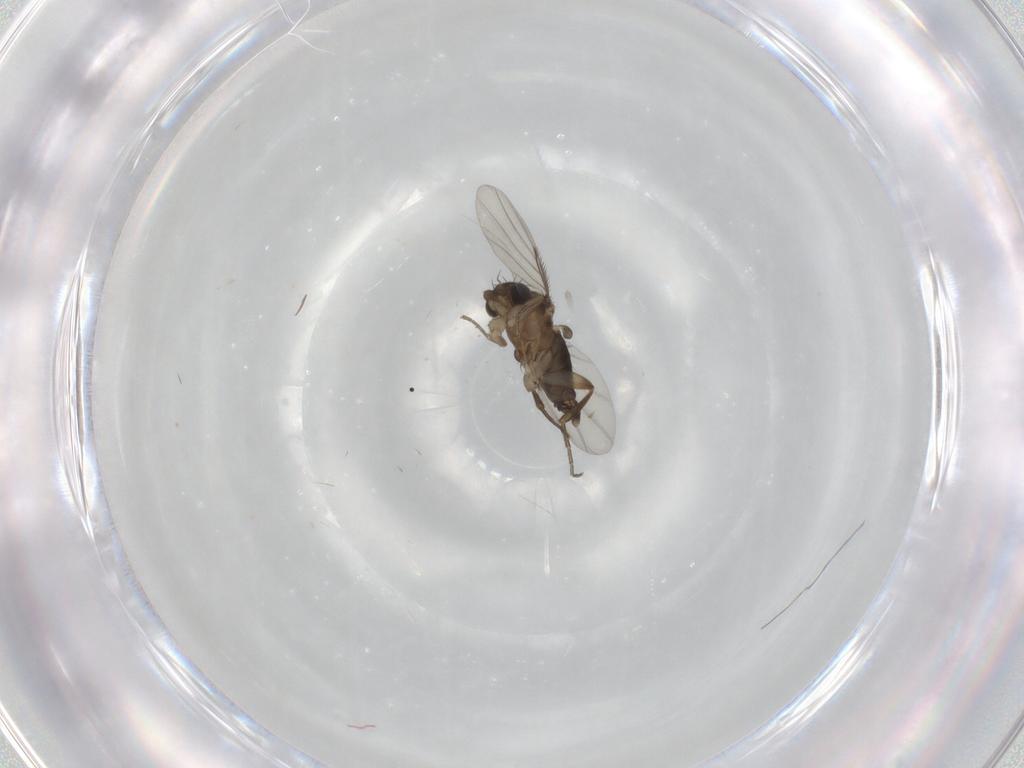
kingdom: Animalia
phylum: Arthropoda
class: Insecta
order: Diptera
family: Phoridae
